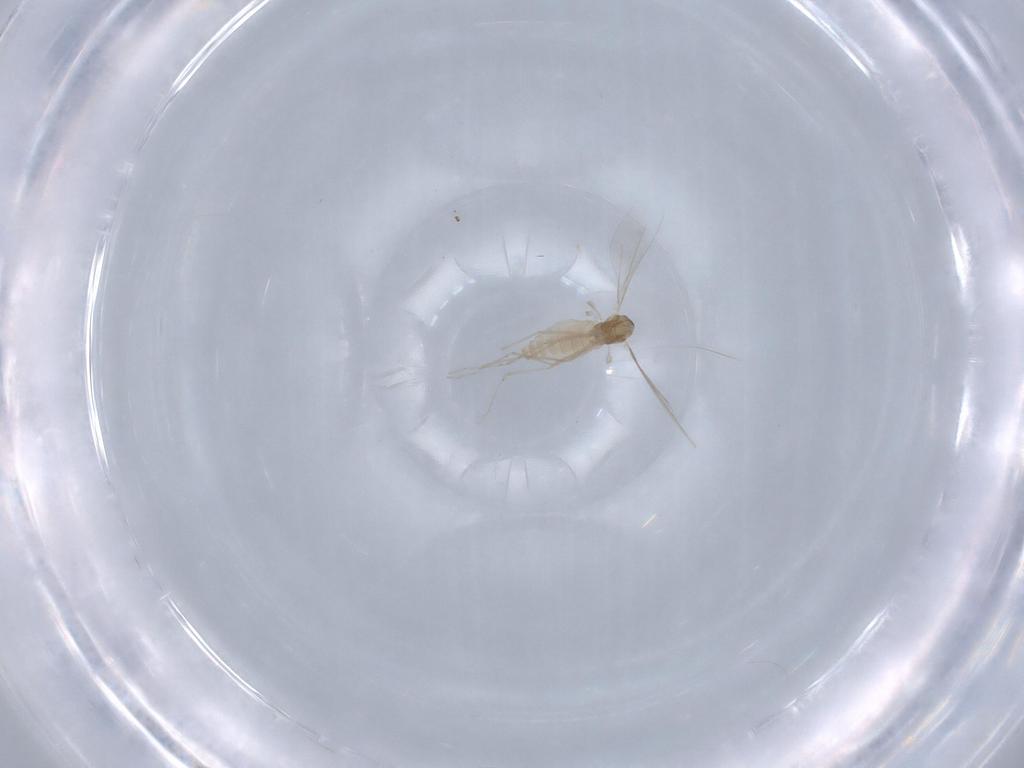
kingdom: Animalia
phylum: Arthropoda
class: Insecta
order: Diptera
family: Cecidomyiidae
